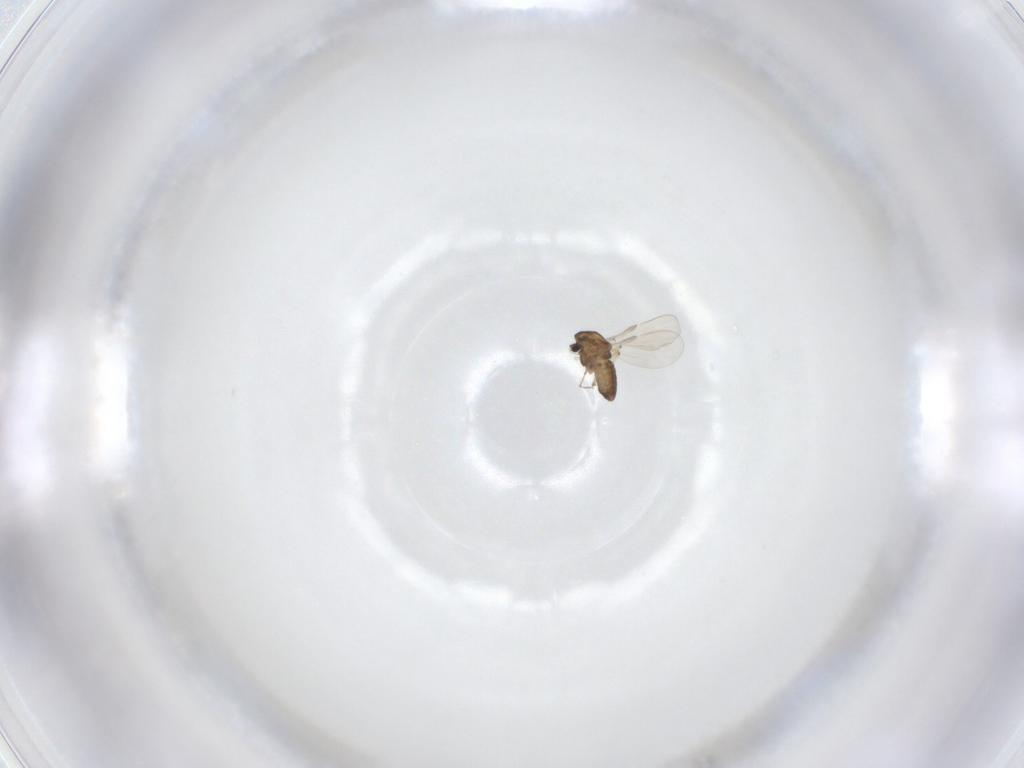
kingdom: Animalia
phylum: Arthropoda
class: Insecta
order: Diptera
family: Chironomidae
